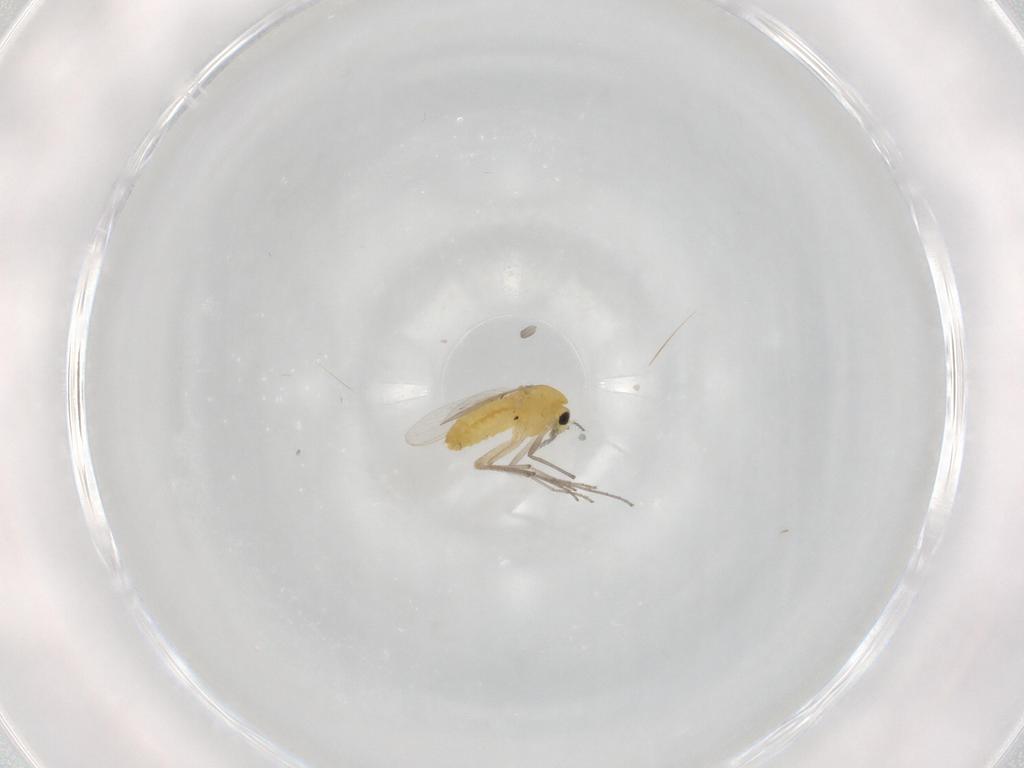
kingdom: Animalia
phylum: Arthropoda
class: Insecta
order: Diptera
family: Chironomidae
